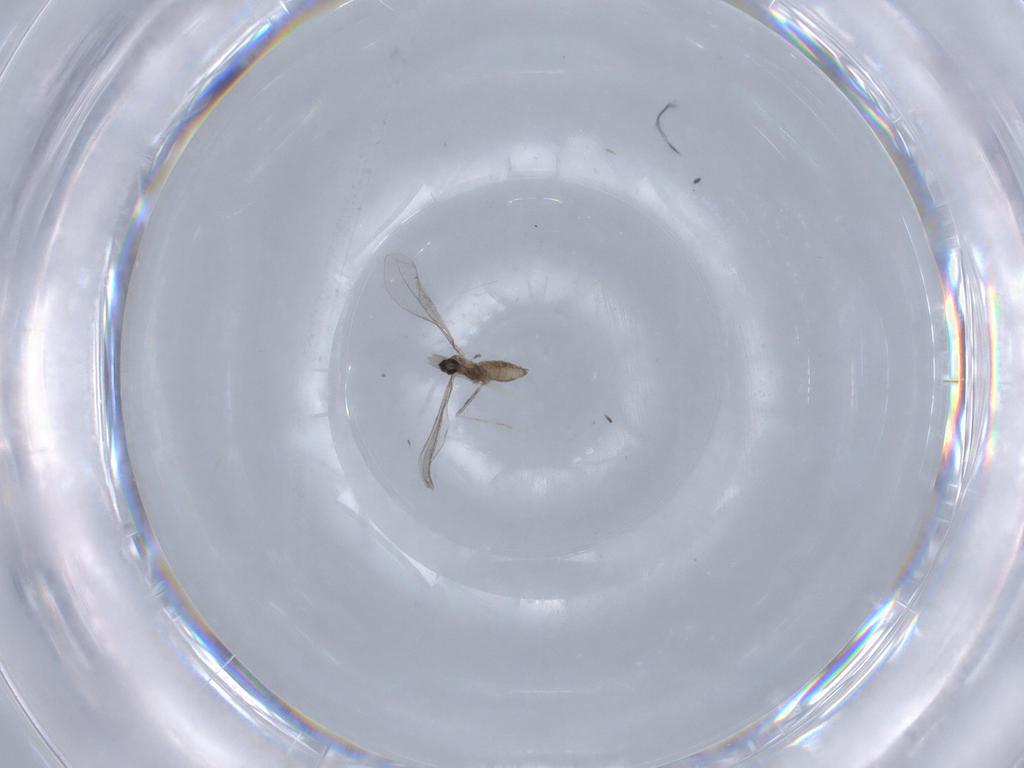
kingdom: Animalia
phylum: Arthropoda
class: Insecta
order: Diptera
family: Cecidomyiidae
